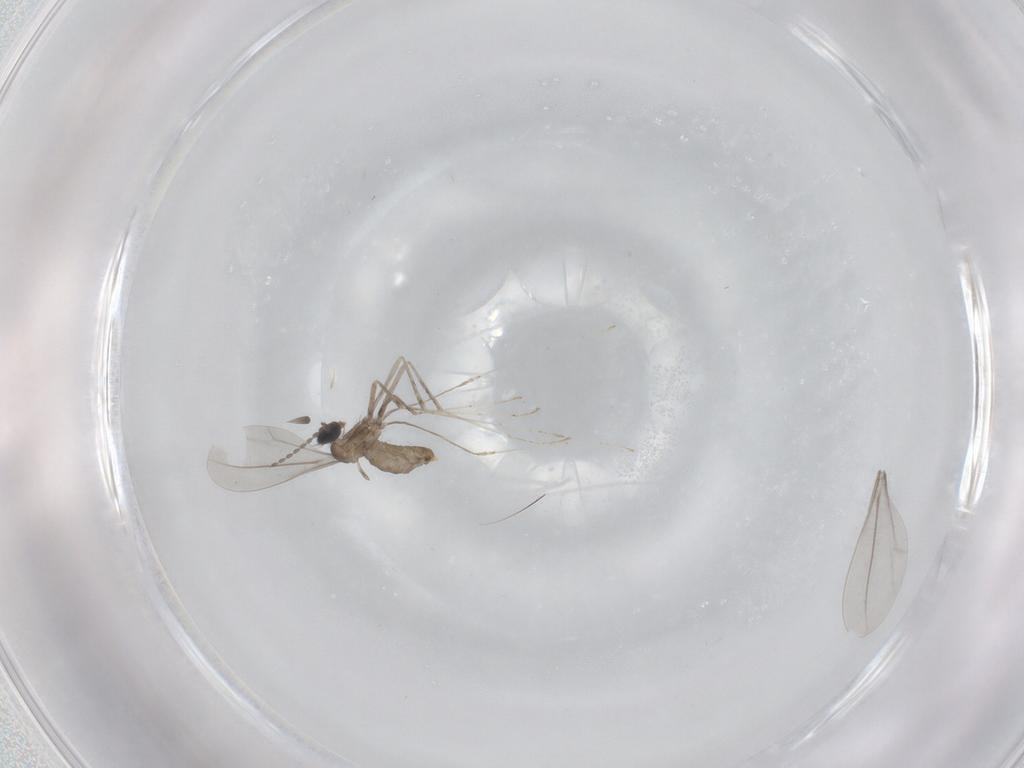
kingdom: Animalia
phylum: Arthropoda
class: Insecta
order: Diptera
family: Cecidomyiidae
